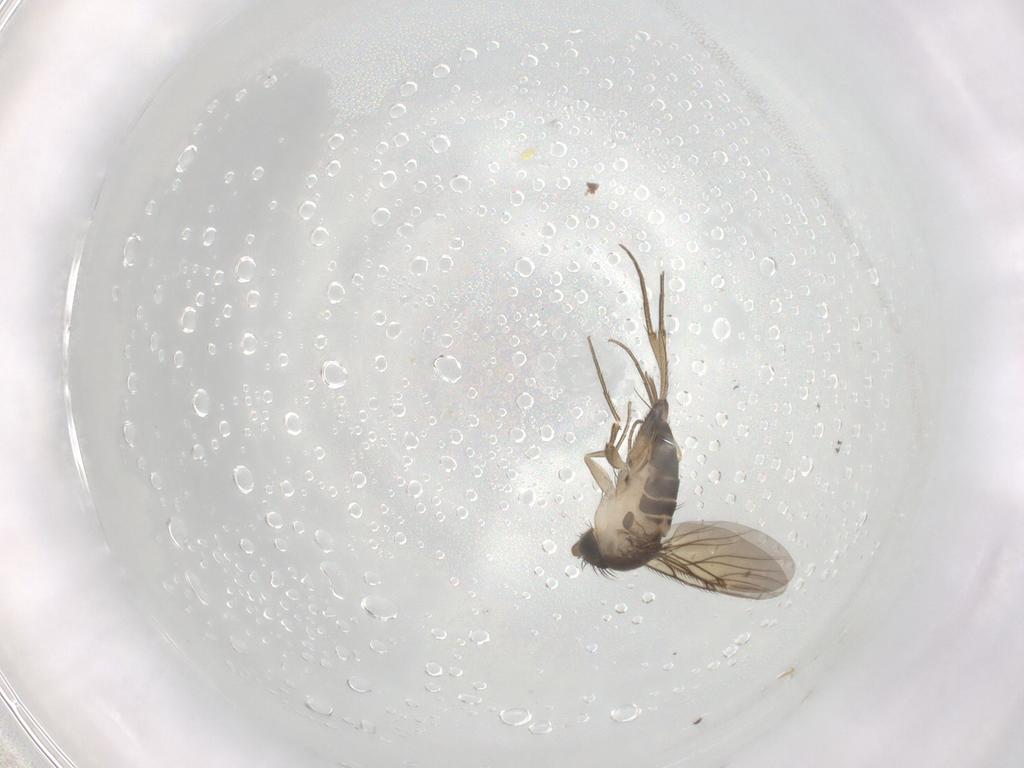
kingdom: Animalia
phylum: Arthropoda
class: Insecta
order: Diptera
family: Phoridae
